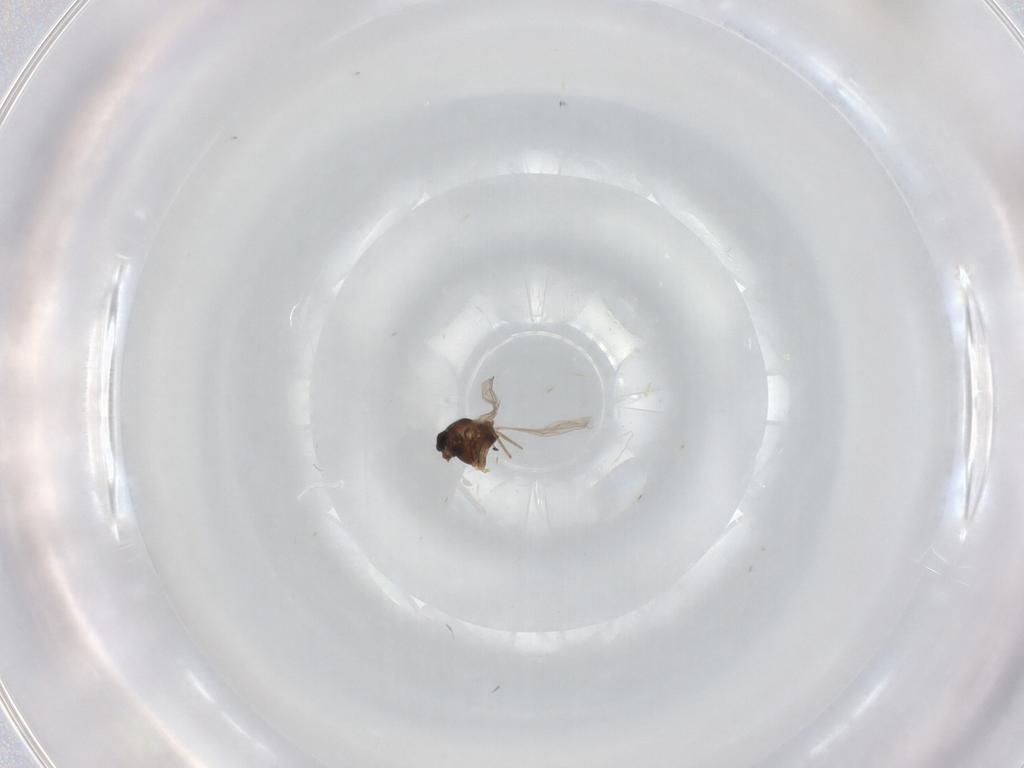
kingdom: Animalia
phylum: Arthropoda
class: Insecta
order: Diptera
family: Chironomidae
